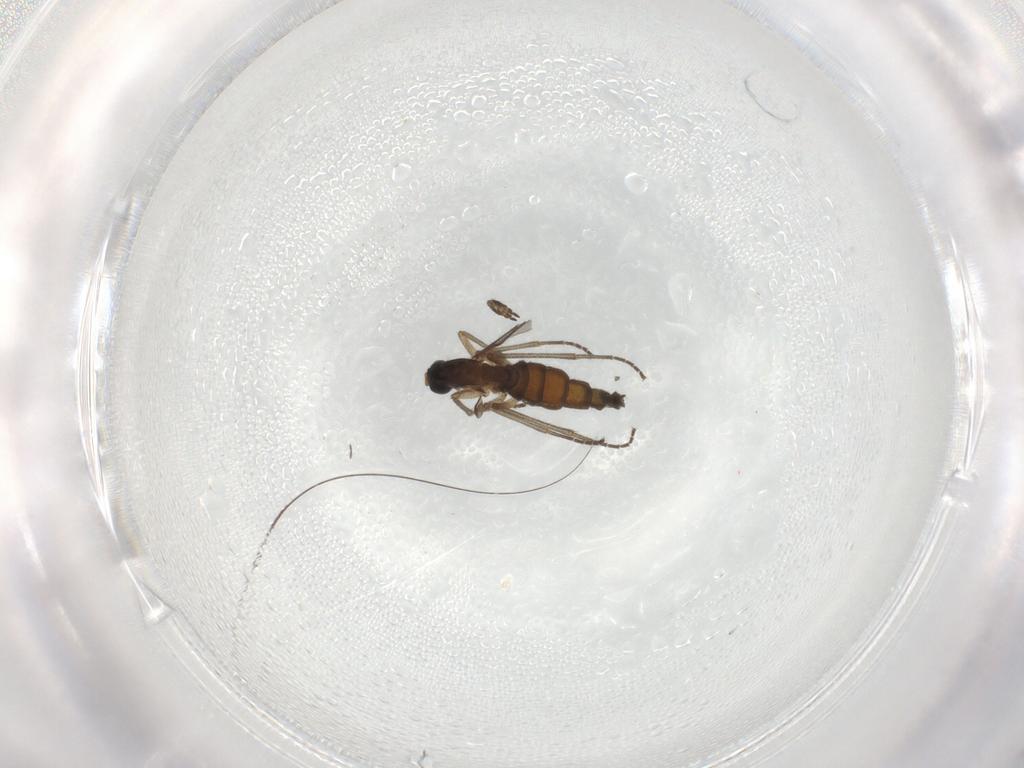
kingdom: Animalia
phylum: Arthropoda
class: Insecta
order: Diptera
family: Sciaridae
